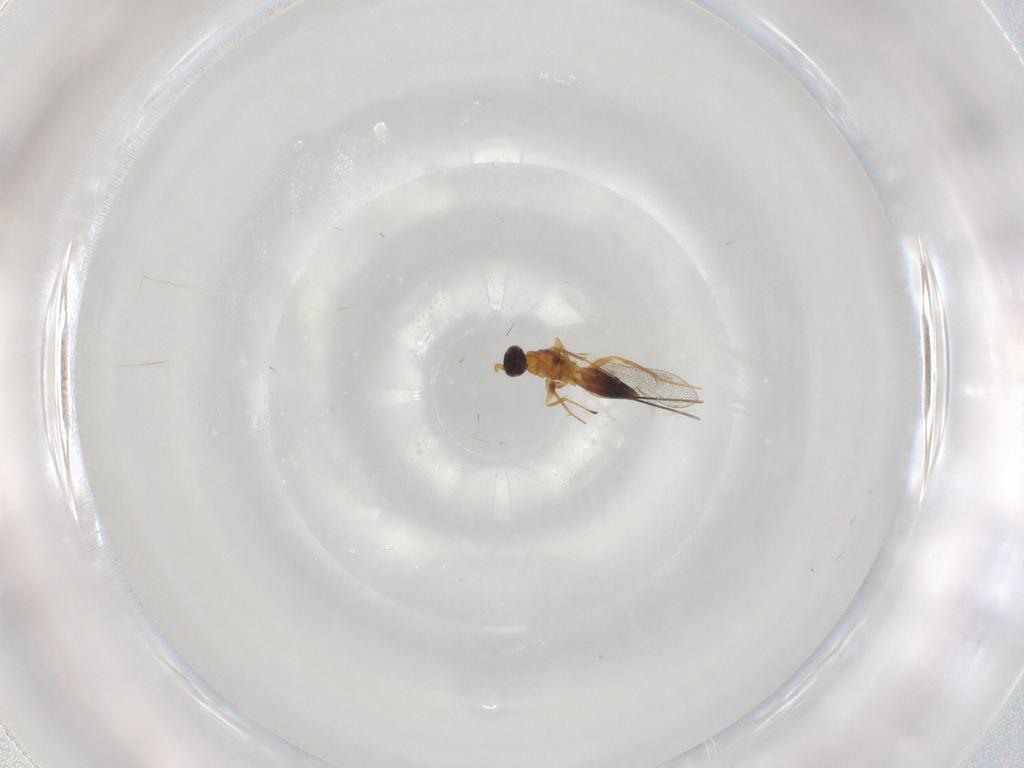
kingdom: Animalia
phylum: Arthropoda
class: Insecta
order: Hymenoptera
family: Mymaridae
